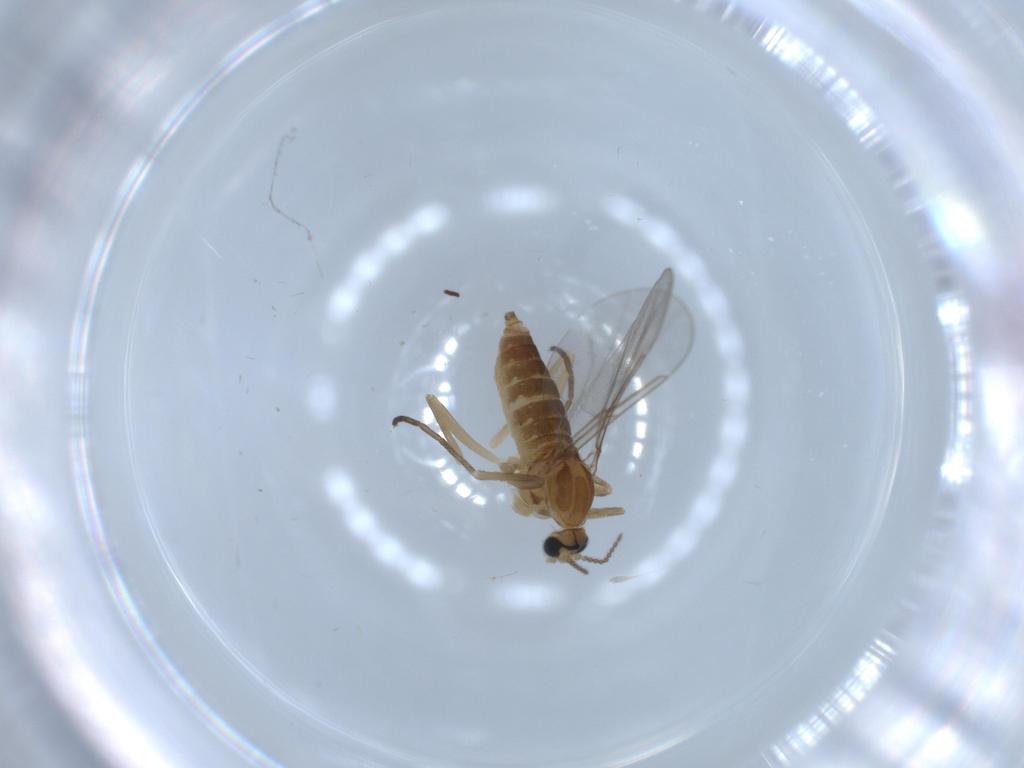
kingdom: Animalia
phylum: Arthropoda
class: Insecta
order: Diptera
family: Cecidomyiidae
